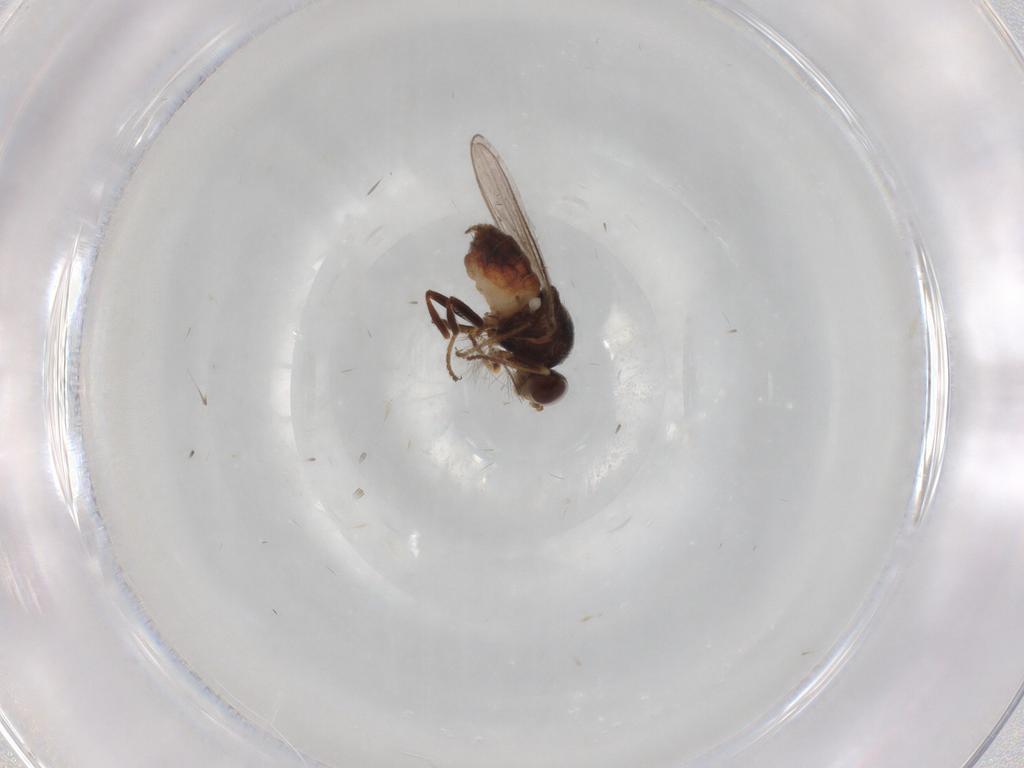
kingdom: Animalia
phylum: Arthropoda
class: Insecta
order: Diptera
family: Chloropidae
